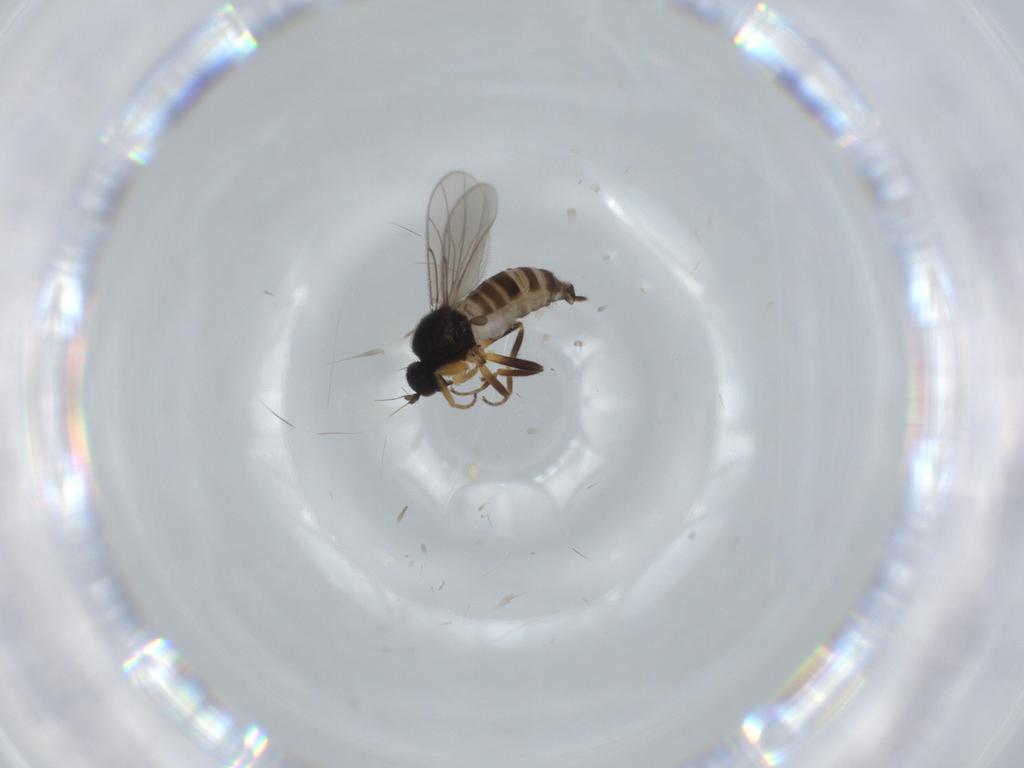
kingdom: Animalia
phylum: Arthropoda
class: Insecta
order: Diptera
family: Hybotidae
